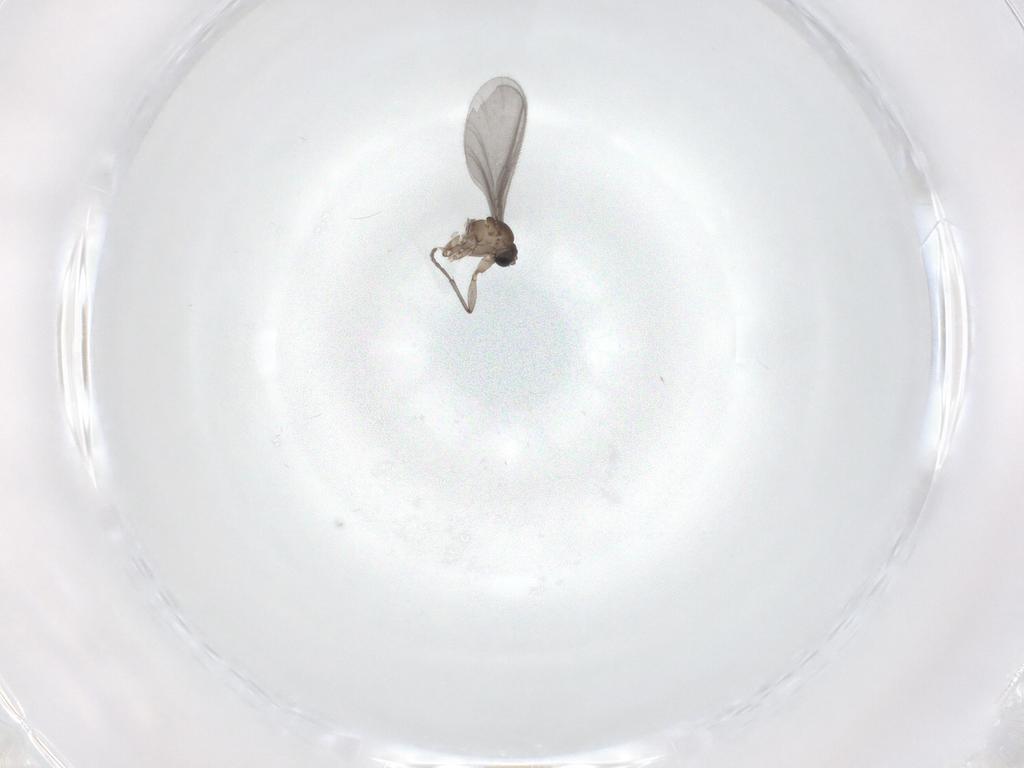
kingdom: Animalia
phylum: Arthropoda
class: Insecta
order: Diptera
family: Sciaridae
